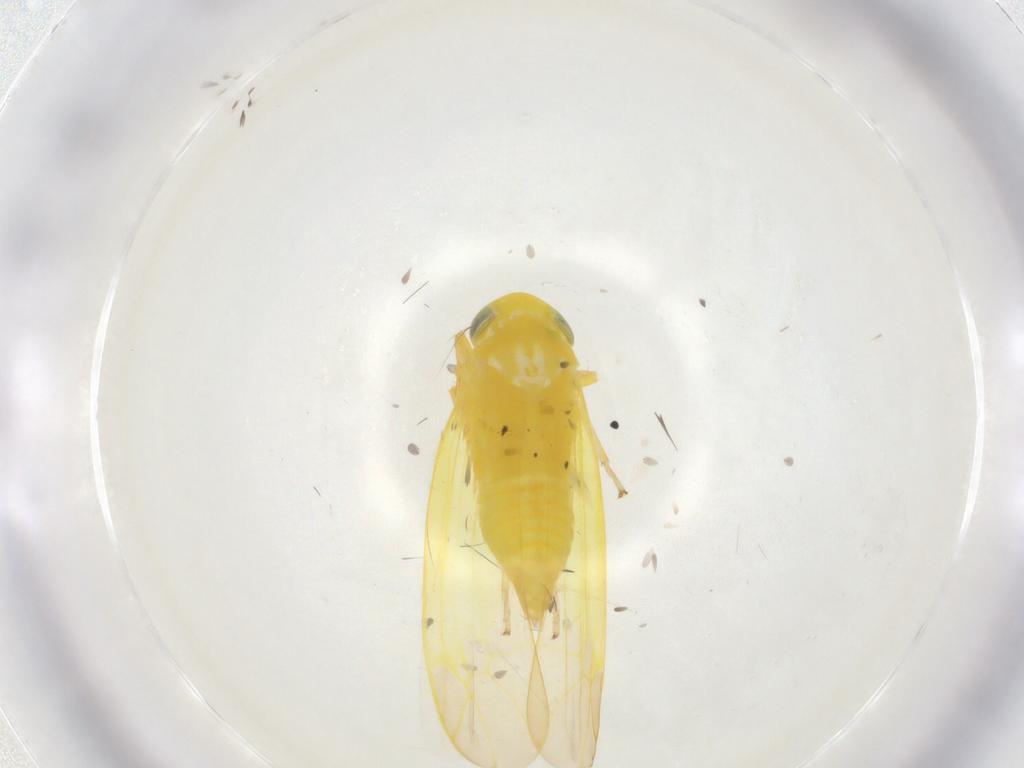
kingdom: Animalia
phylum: Arthropoda
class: Insecta
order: Hemiptera
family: Cicadellidae
